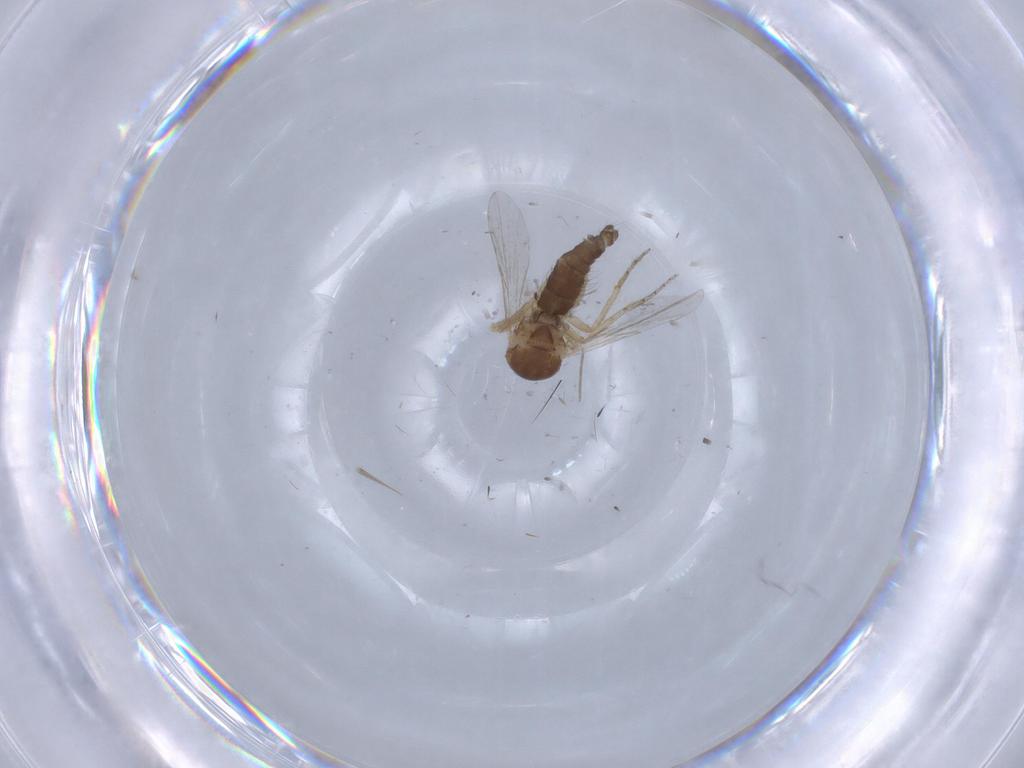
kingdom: Animalia
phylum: Arthropoda
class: Insecta
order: Diptera
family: Ceratopogonidae
